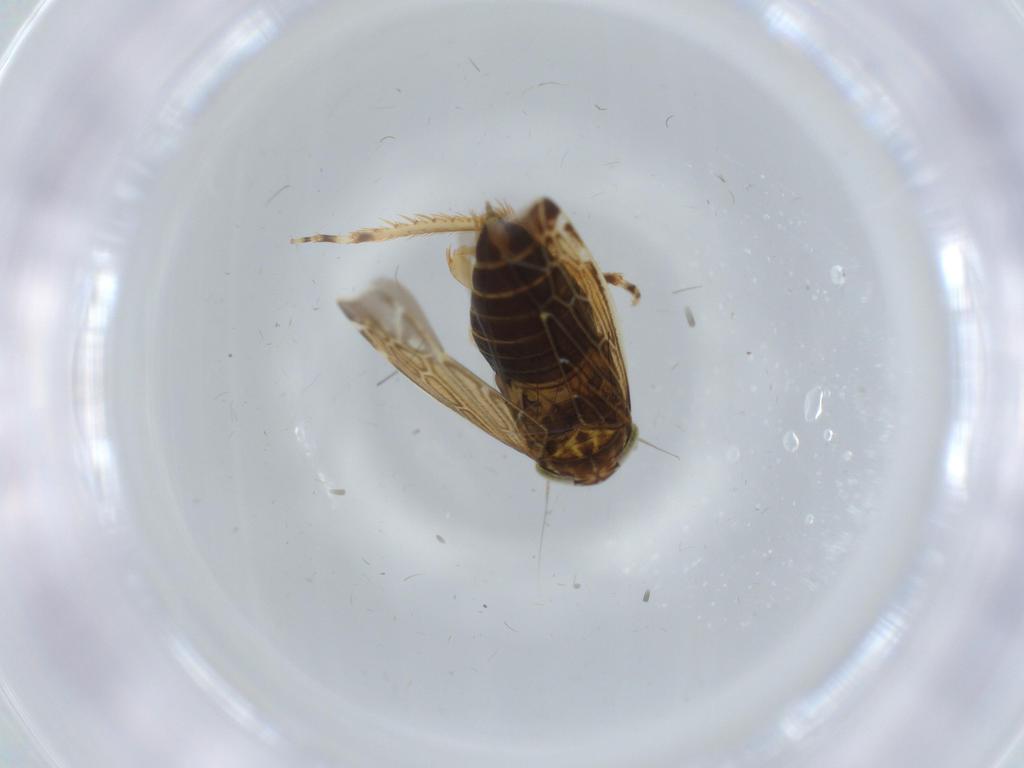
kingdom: Animalia
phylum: Arthropoda
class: Insecta
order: Hemiptera
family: Cicadellidae
